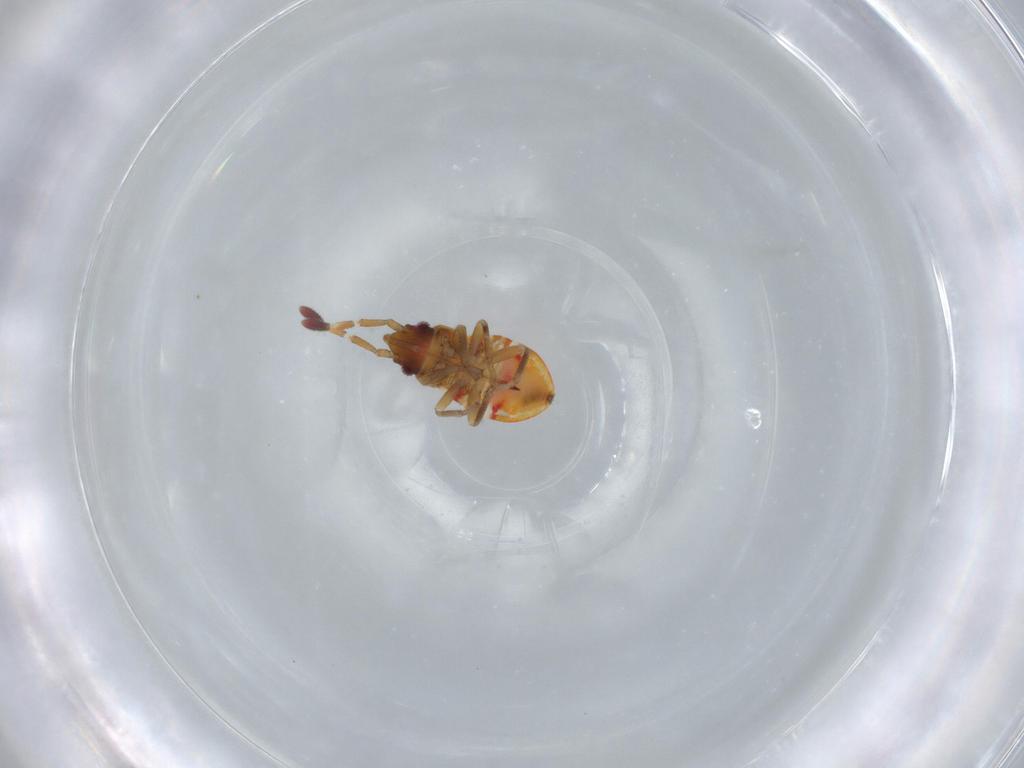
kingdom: Animalia
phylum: Arthropoda
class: Insecta
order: Hemiptera
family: Rhyparochromidae
